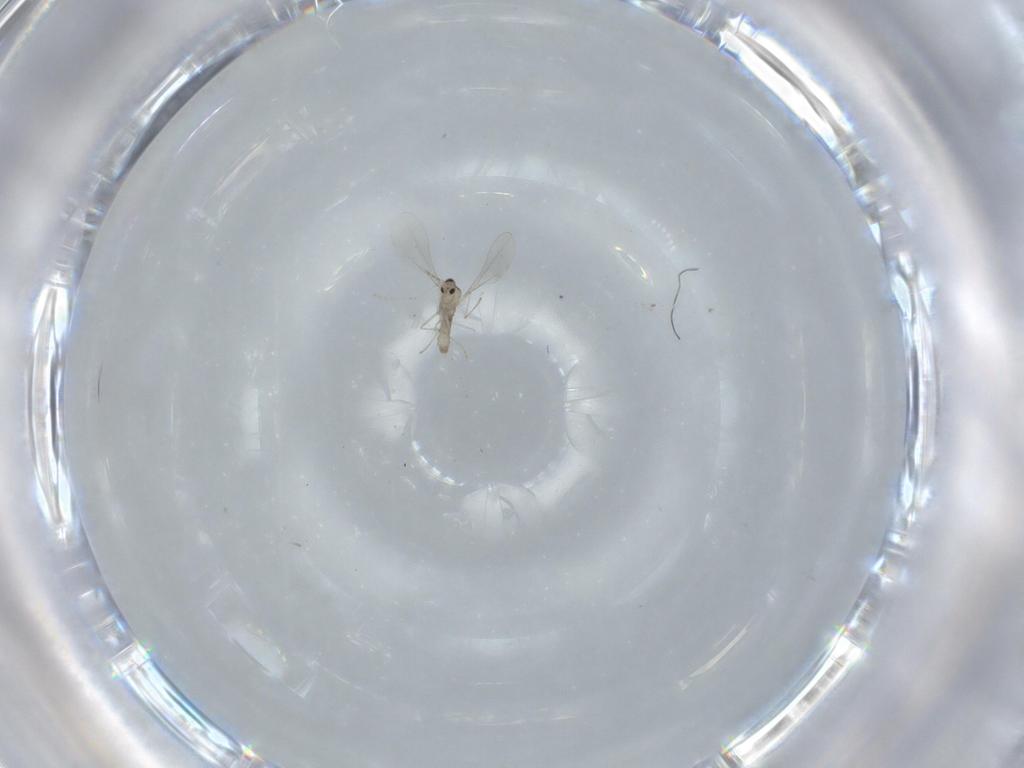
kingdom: Animalia
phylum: Arthropoda
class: Insecta
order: Diptera
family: Cecidomyiidae
